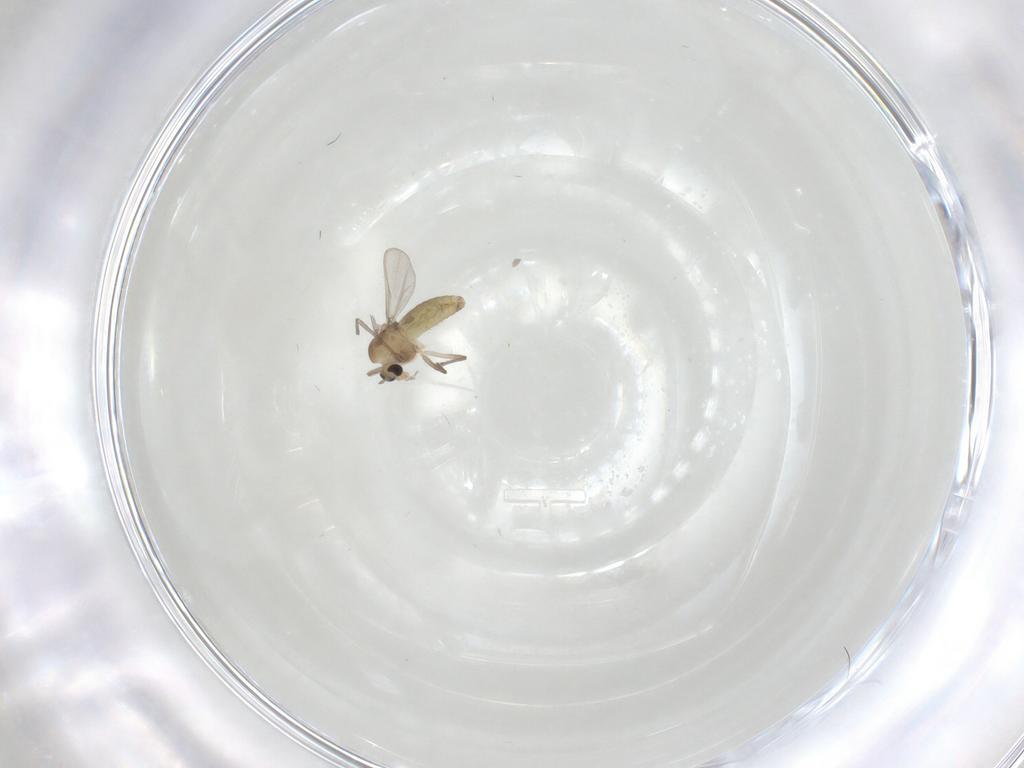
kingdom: Animalia
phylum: Arthropoda
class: Insecta
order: Diptera
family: Chironomidae
